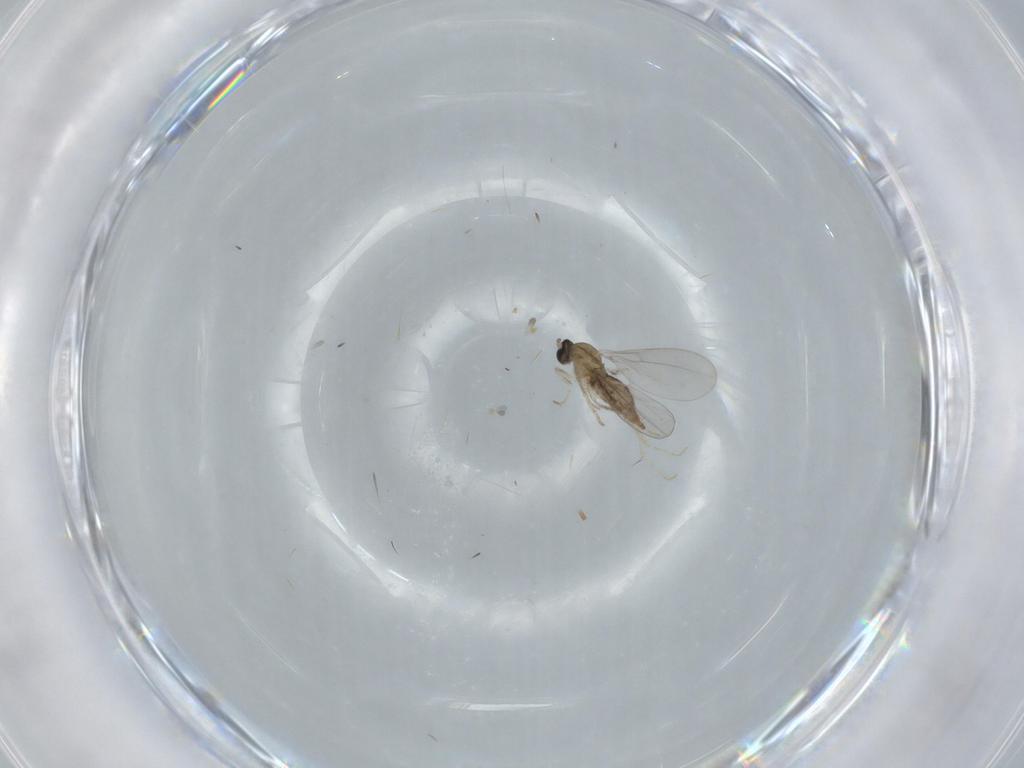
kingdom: Animalia
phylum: Arthropoda
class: Insecta
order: Diptera
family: Cecidomyiidae
